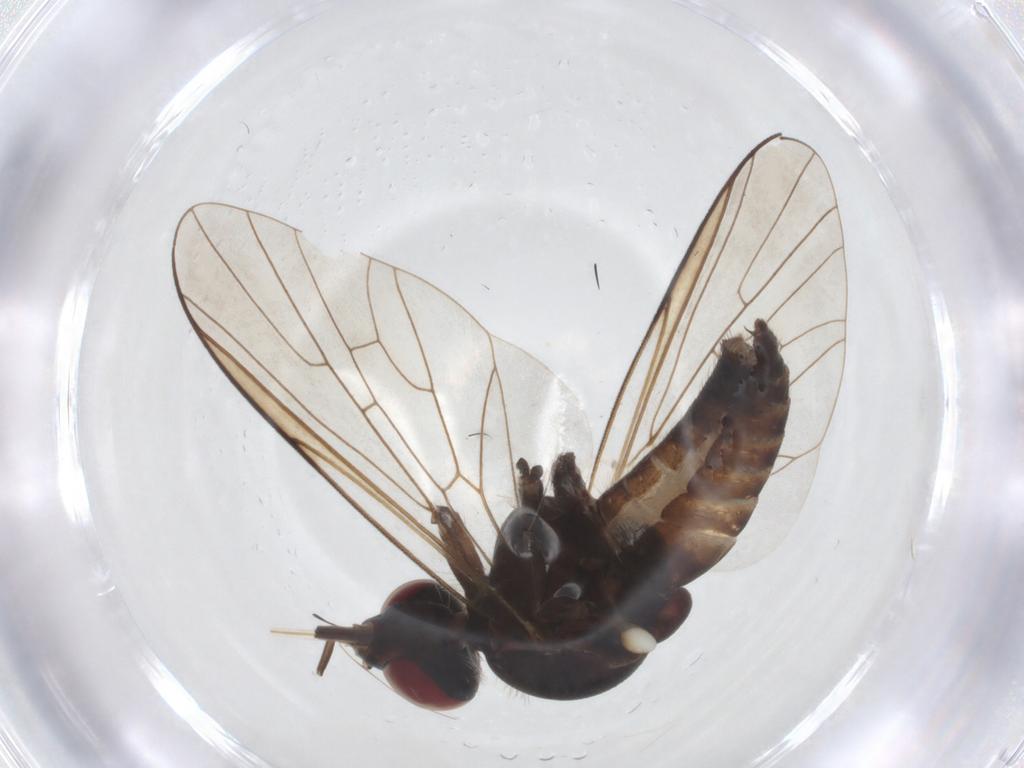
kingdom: Animalia
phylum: Arthropoda
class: Insecta
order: Diptera
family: Bombyliidae
